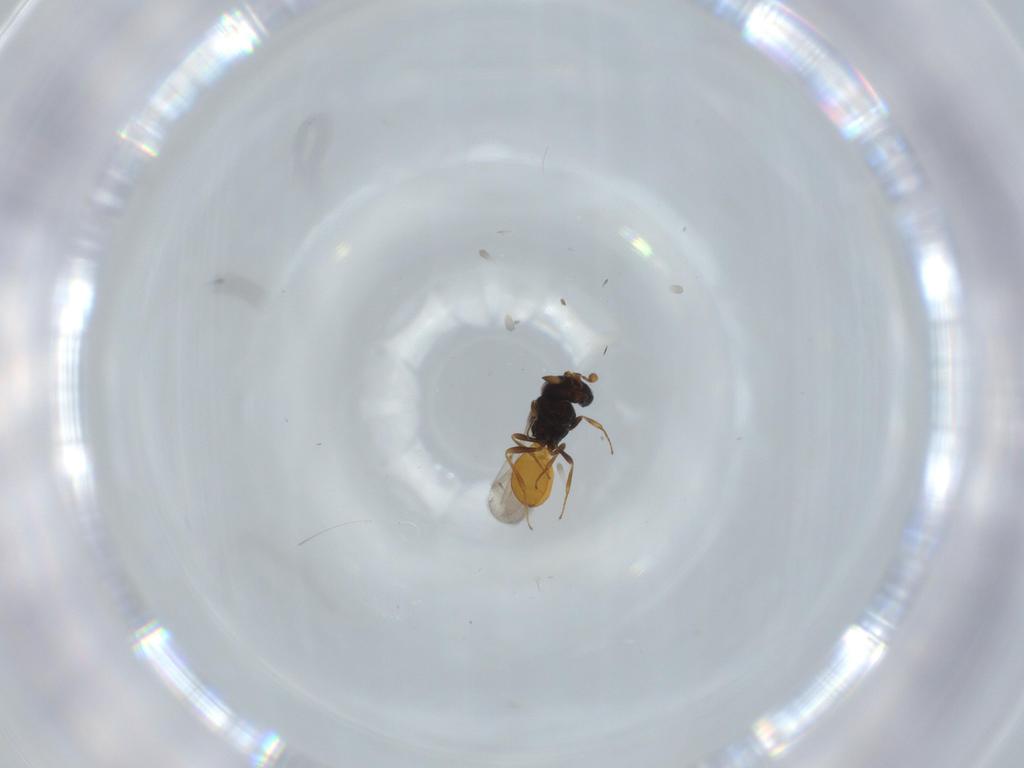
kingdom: Animalia
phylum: Arthropoda
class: Insecta
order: Hymenoptera
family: Scelionidae
